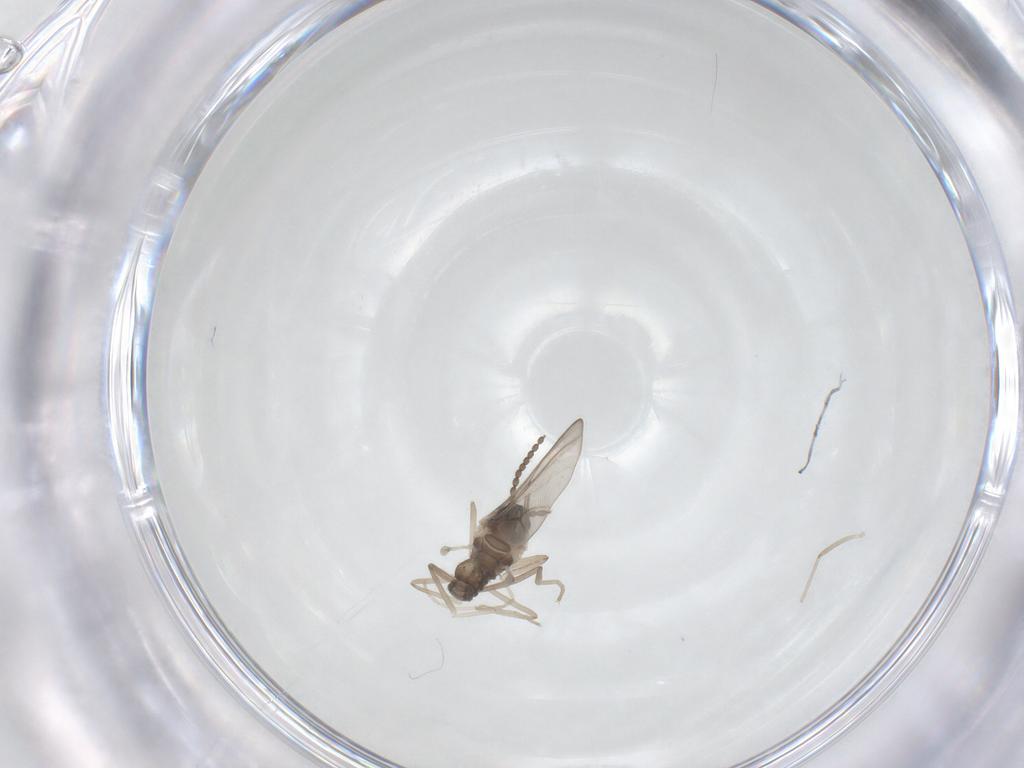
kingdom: Animalia
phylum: Arthropoda
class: Insecta
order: Diptera
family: Cecidomyiidae
